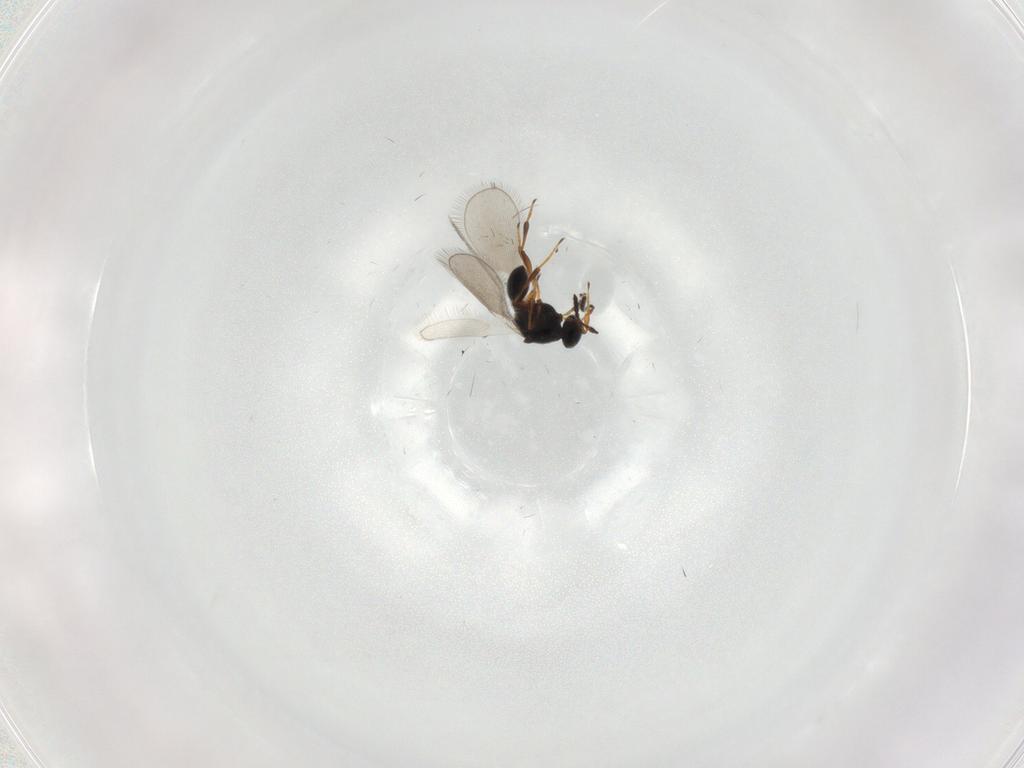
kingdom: Animalia
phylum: Arthropoda
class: Insecta
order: Hymenoptera
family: Platygastridae
